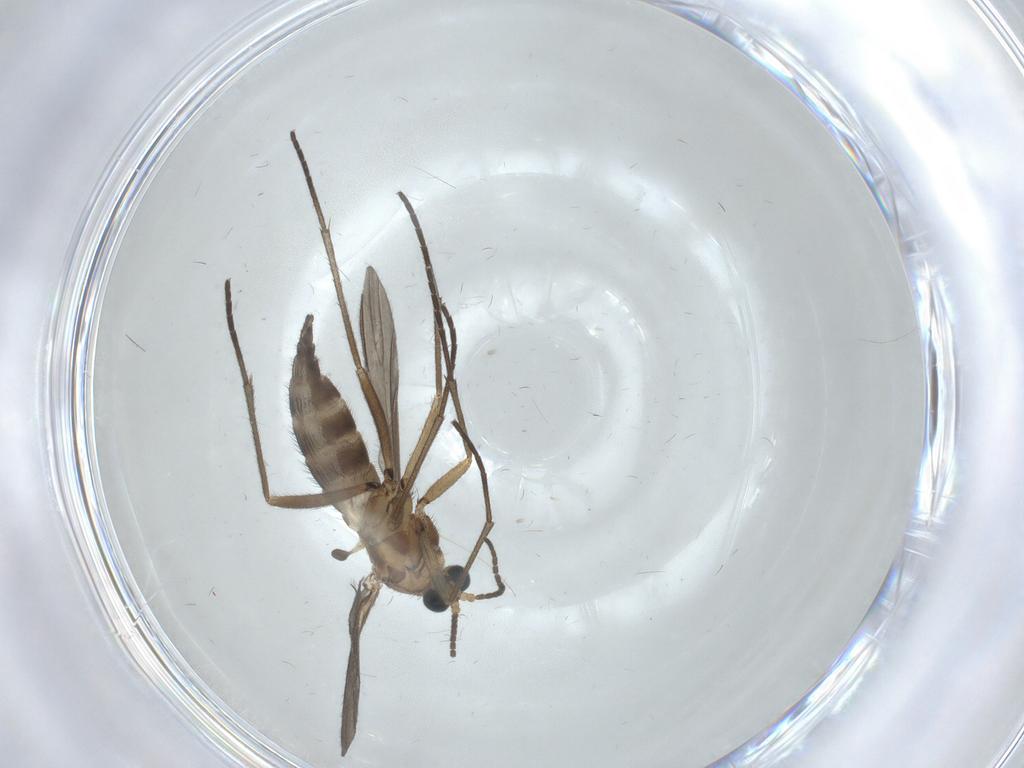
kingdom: Animalia
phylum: Arthropoda
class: Insecta
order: Diptera
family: Sciaridae
